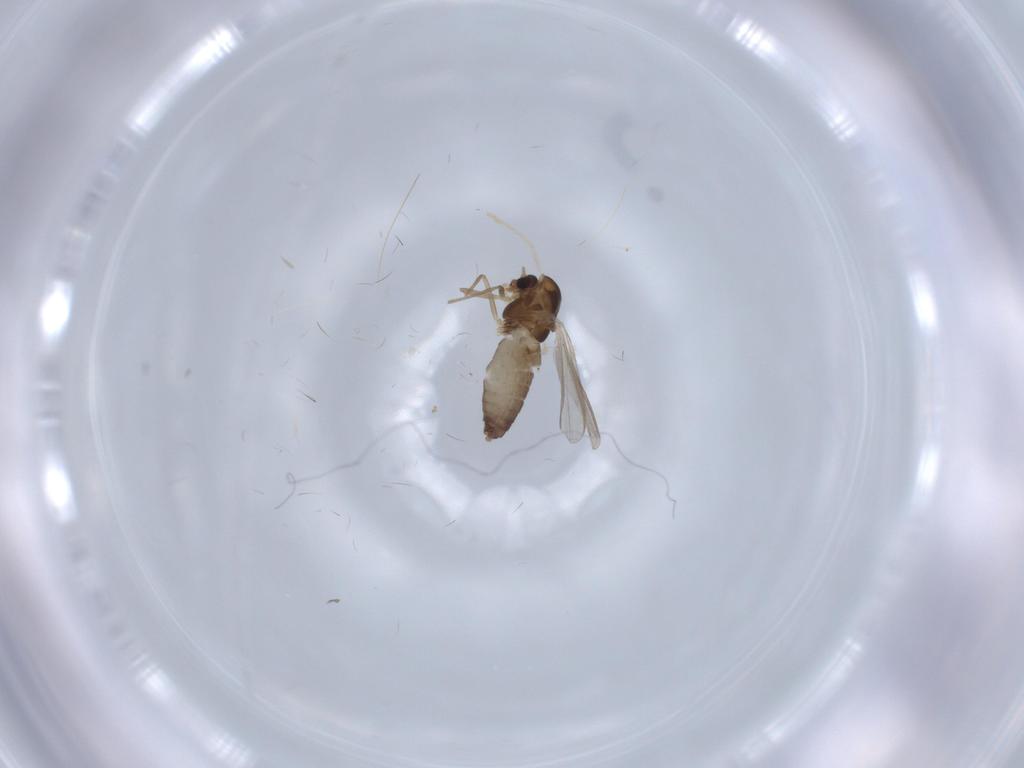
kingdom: Animalia
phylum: Arthropoda
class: Insecta
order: Diptera
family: Chironomidae
